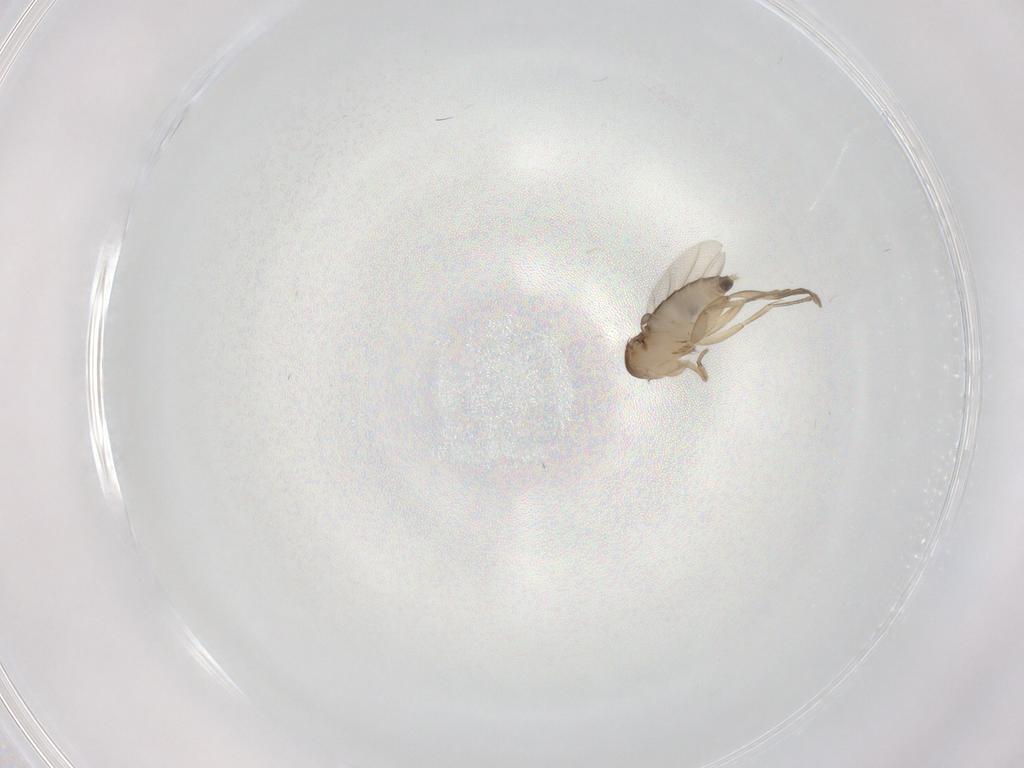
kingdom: Animalia
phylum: Arthropoda
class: Insecta
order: Diptera
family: Phoridae
